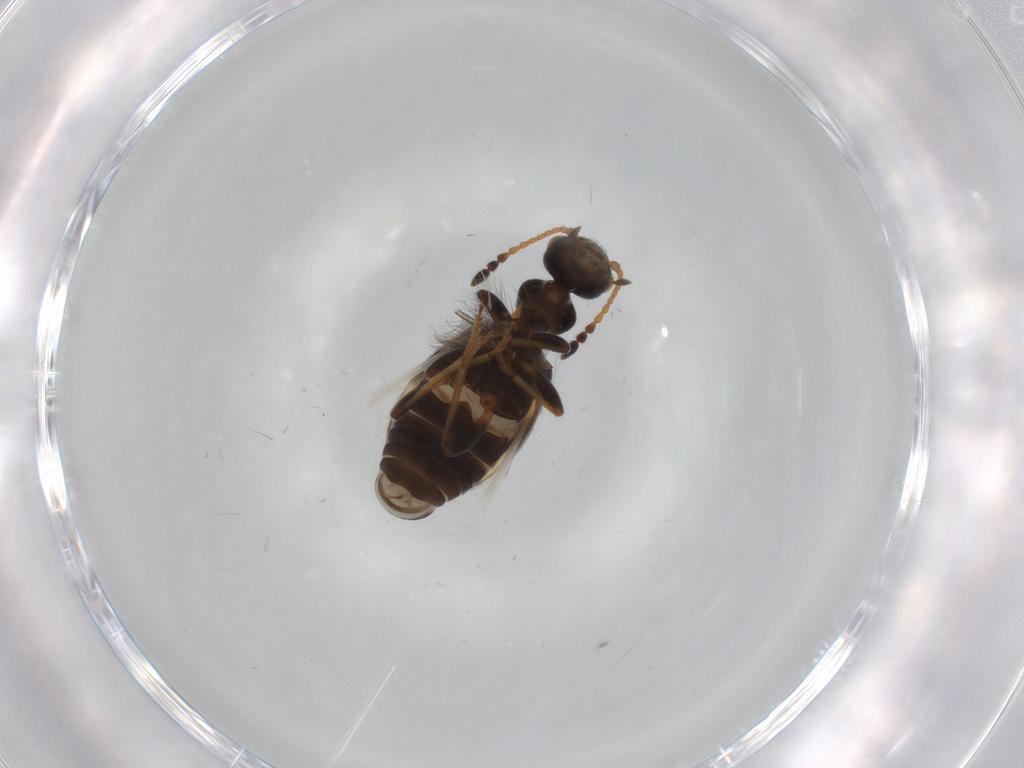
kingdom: Animalia
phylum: Arthropoda
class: Insecta
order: Coleoptera
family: Anthicidae
